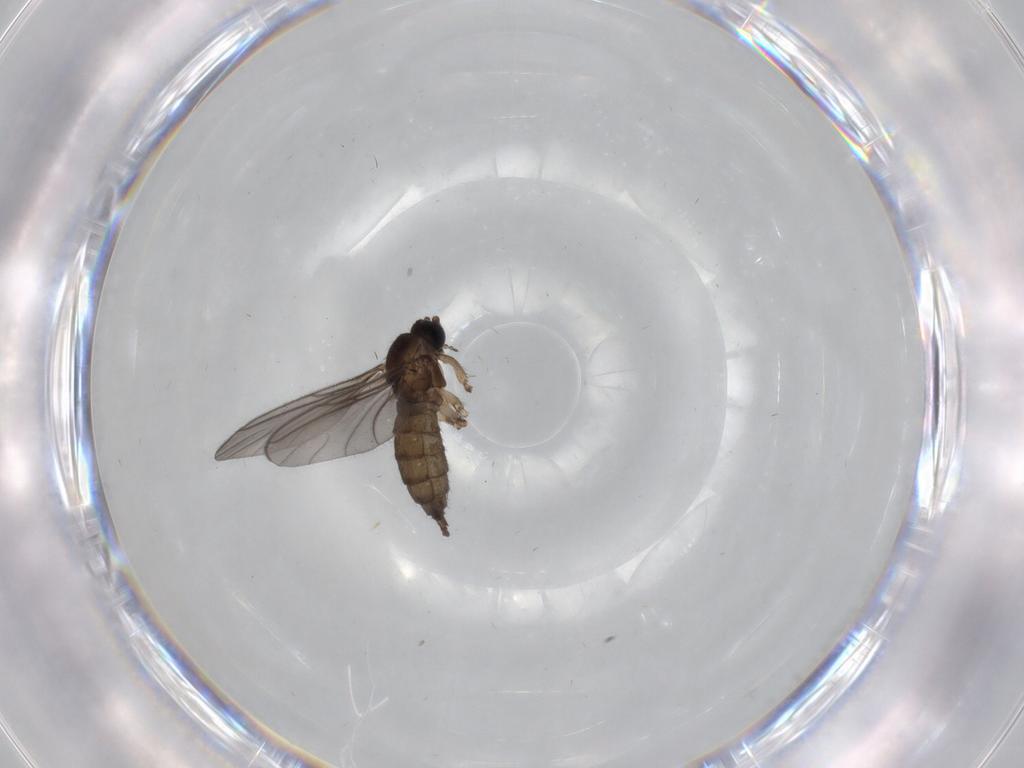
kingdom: Animalia
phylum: Arthropoda
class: Insecta
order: Diptera
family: Sciaridae
